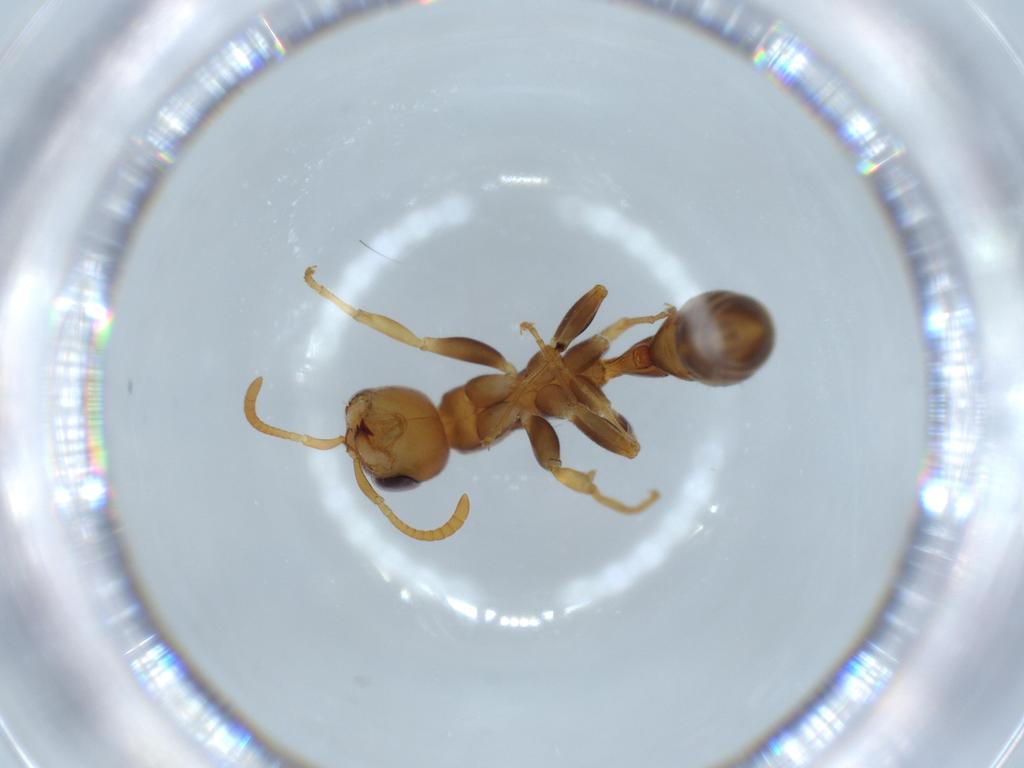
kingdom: Animalia
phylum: Arthropoda
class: Insecta
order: Hymenoptera
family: Formicidae
